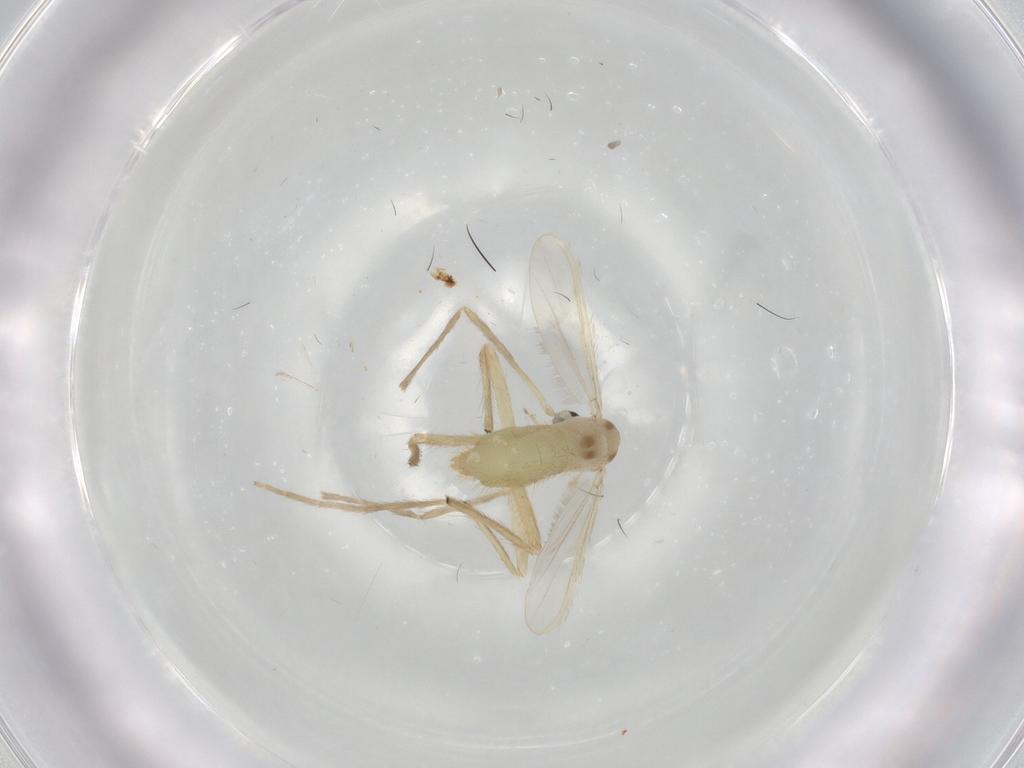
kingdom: Animalia
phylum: Arthropoda
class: Insecta
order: Diptera
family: Chironomidae
